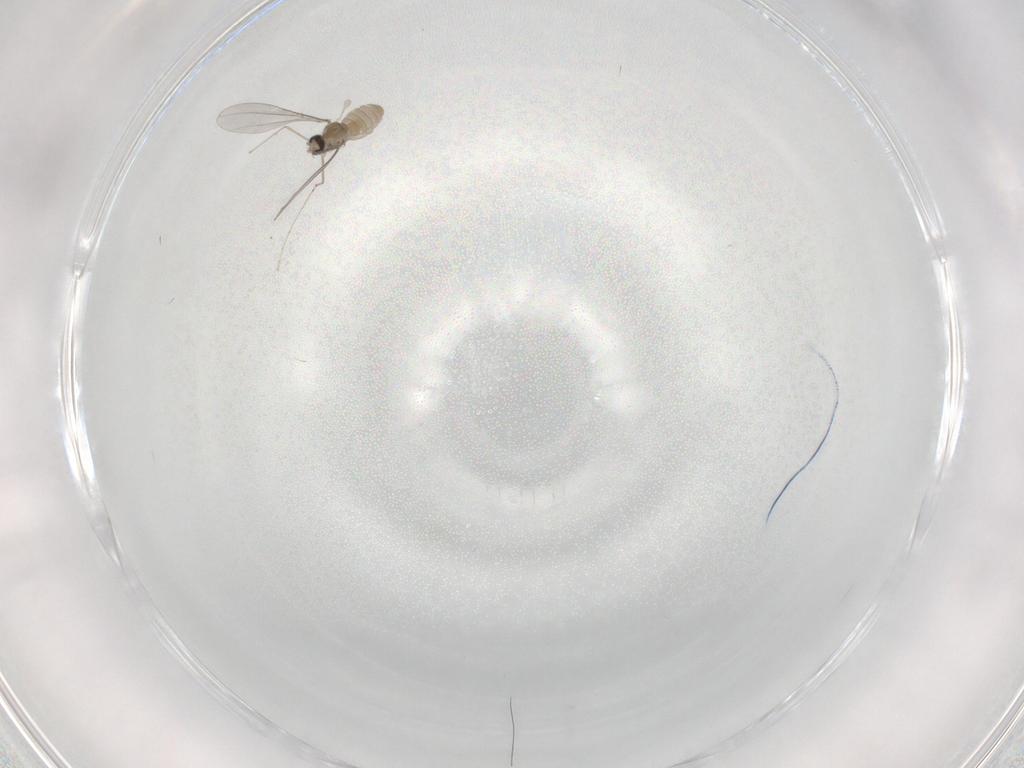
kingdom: Animalia
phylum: Arthropoda
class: Insecta
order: Diptera
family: Cecidomyiidae
